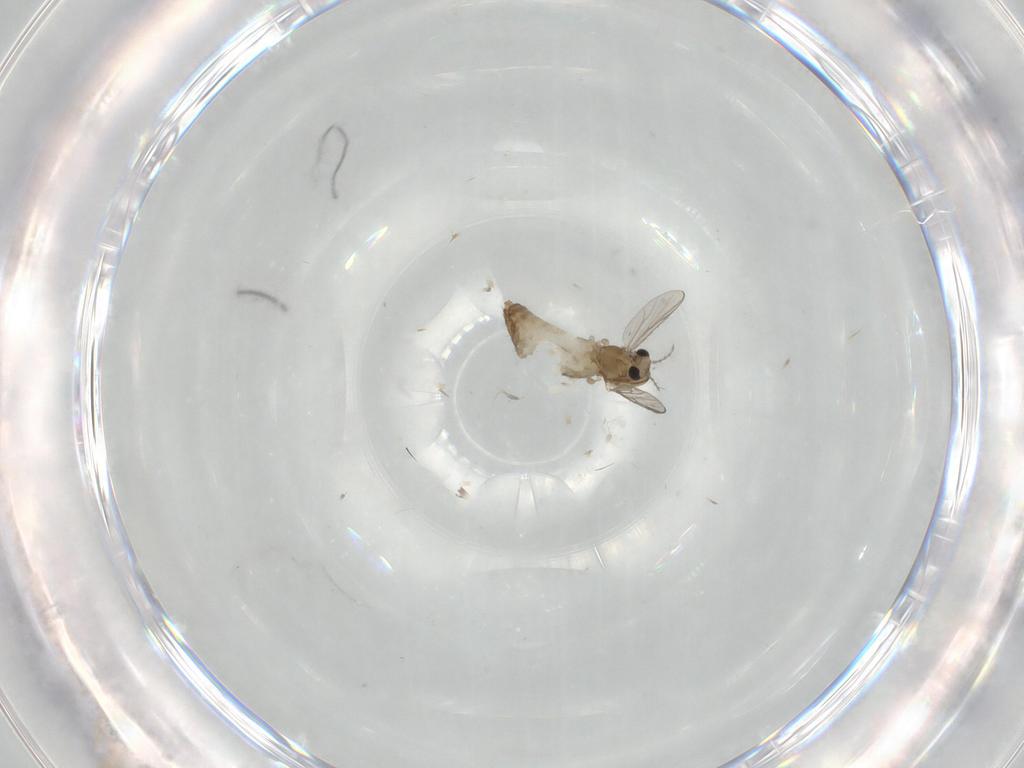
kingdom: Animalia
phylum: Arthropoda
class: Insecta
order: Diptera
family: Chironomidae
